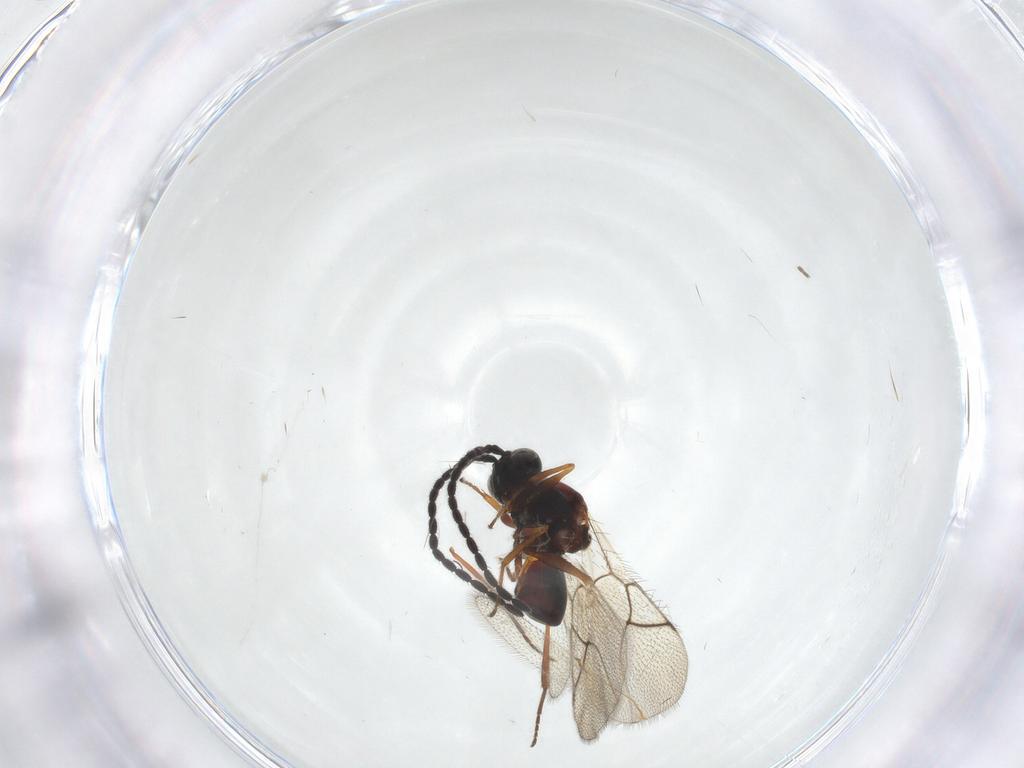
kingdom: Animalia
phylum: Arthropoda
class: Insecta
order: Hymenoptera
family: Figitidae
